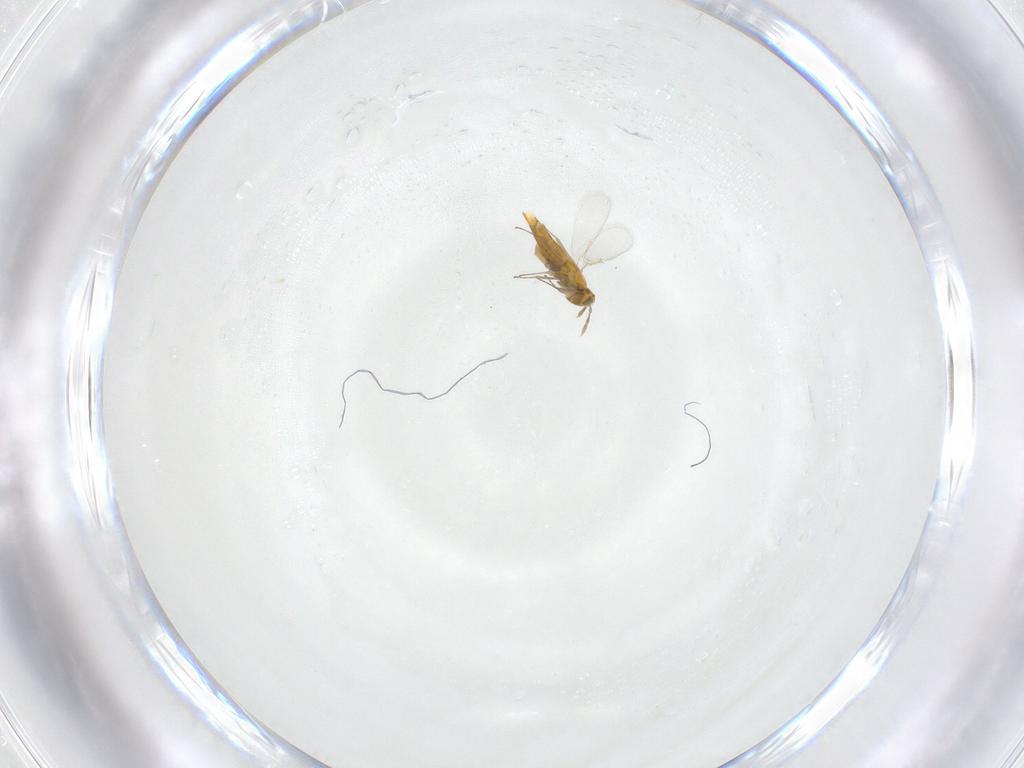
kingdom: Animalia
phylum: Arthropoda
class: Insecta
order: Hymenoptera
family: Aphelinidae
